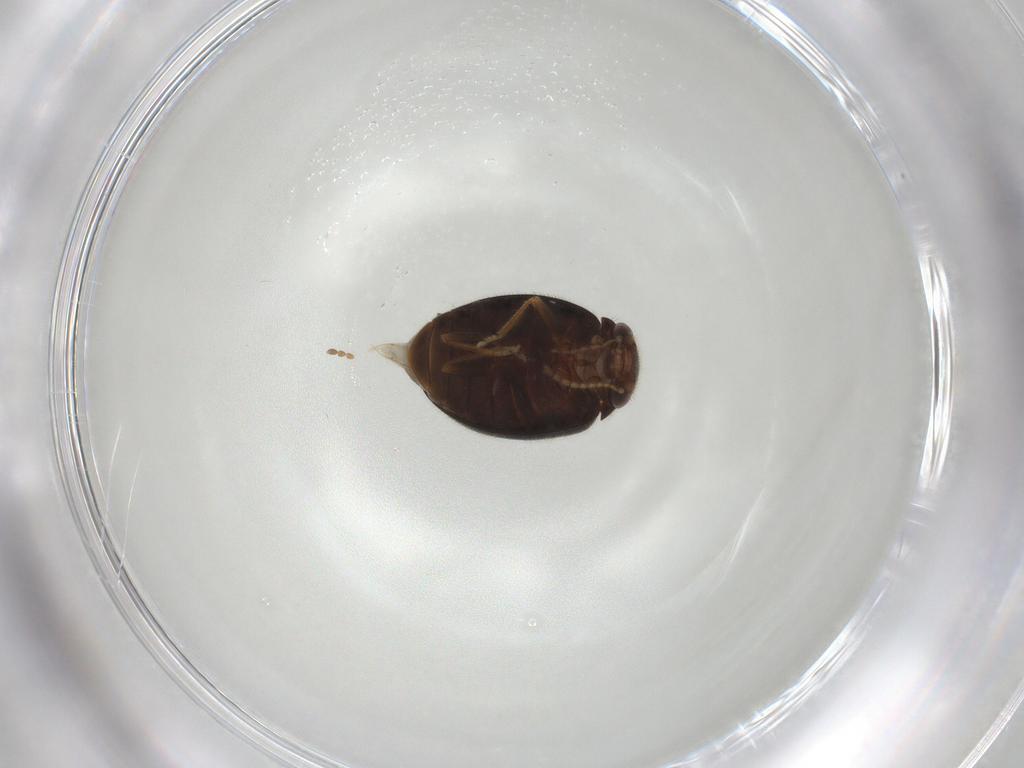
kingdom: Animalia
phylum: Arthropoda
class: Insecta
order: Coleoptera
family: Scirtidae
